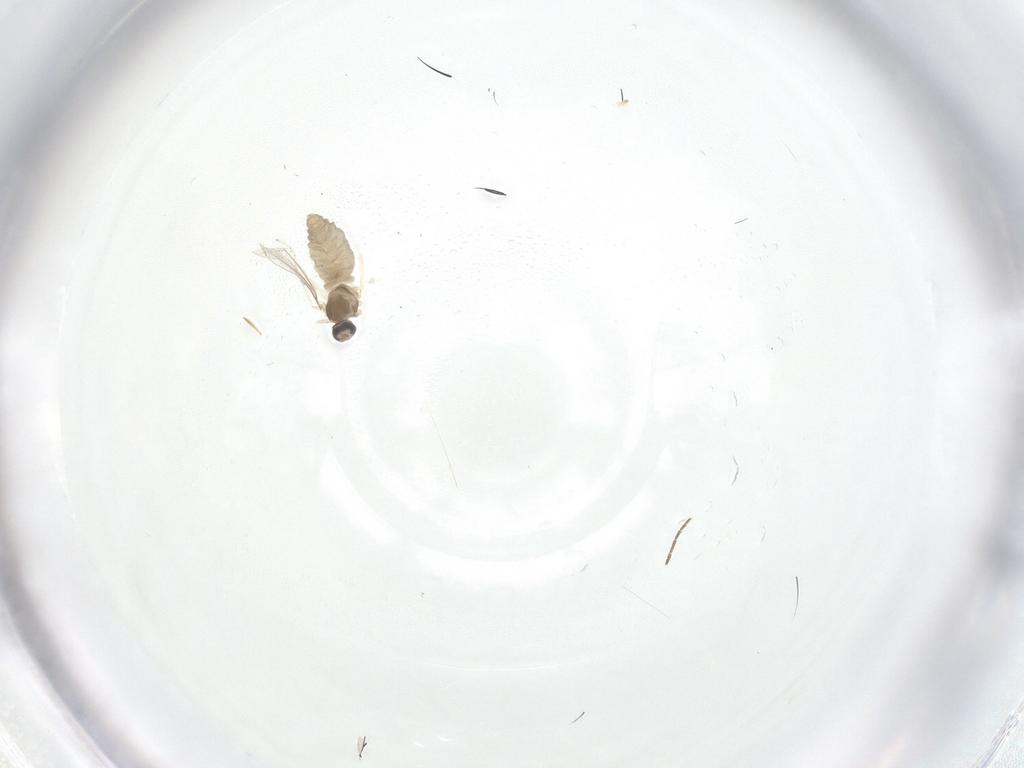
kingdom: Animalia
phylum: Arthropoda
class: Insecta
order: Diptera
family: Cecidomyiidae
